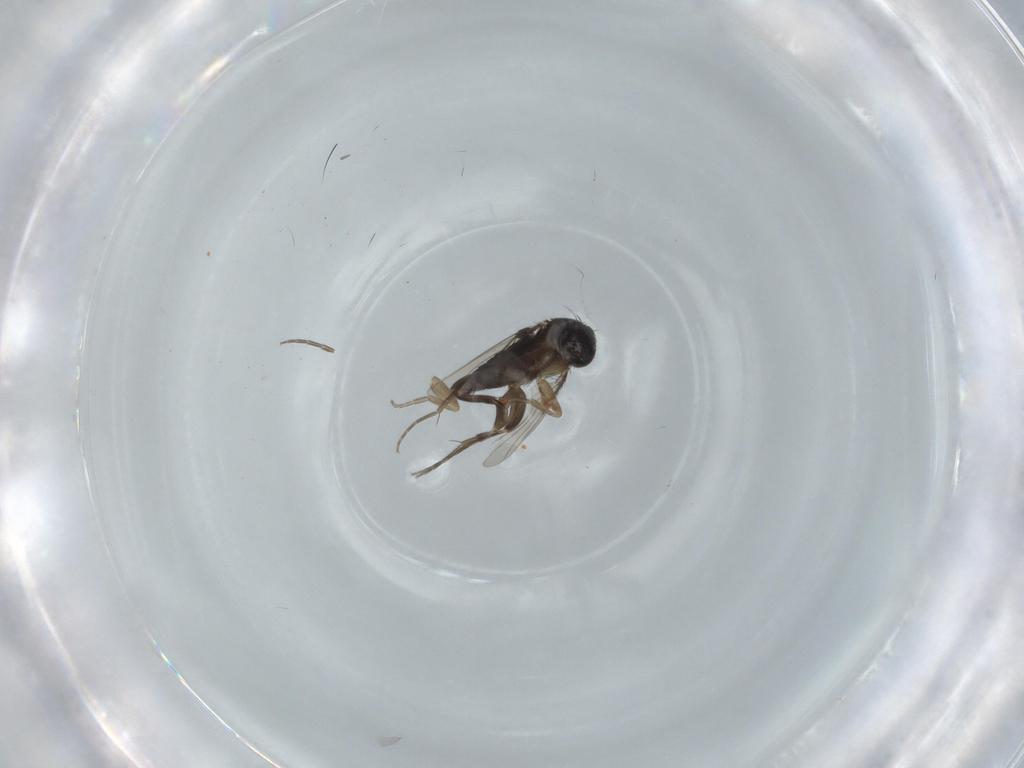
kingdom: Animalia
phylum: Arthropoda
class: Insecta
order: Diptera
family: Phoridae
